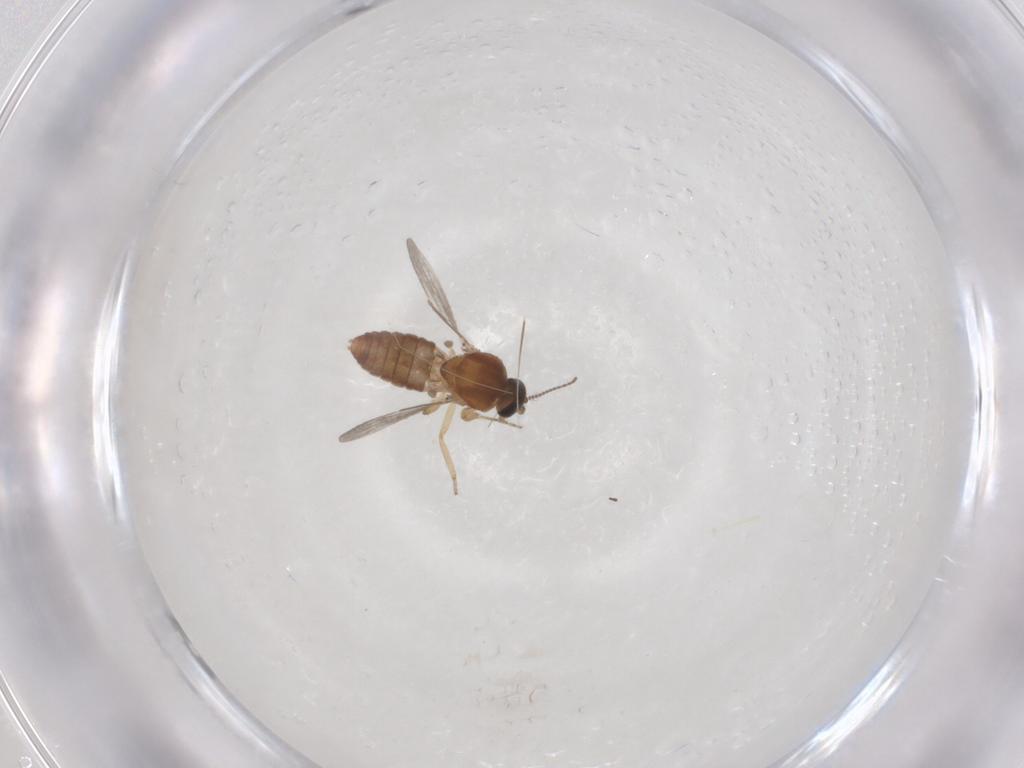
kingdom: Animalia
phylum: Arthropoda
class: Insecta
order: Diptera
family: Ceratopogonidae
